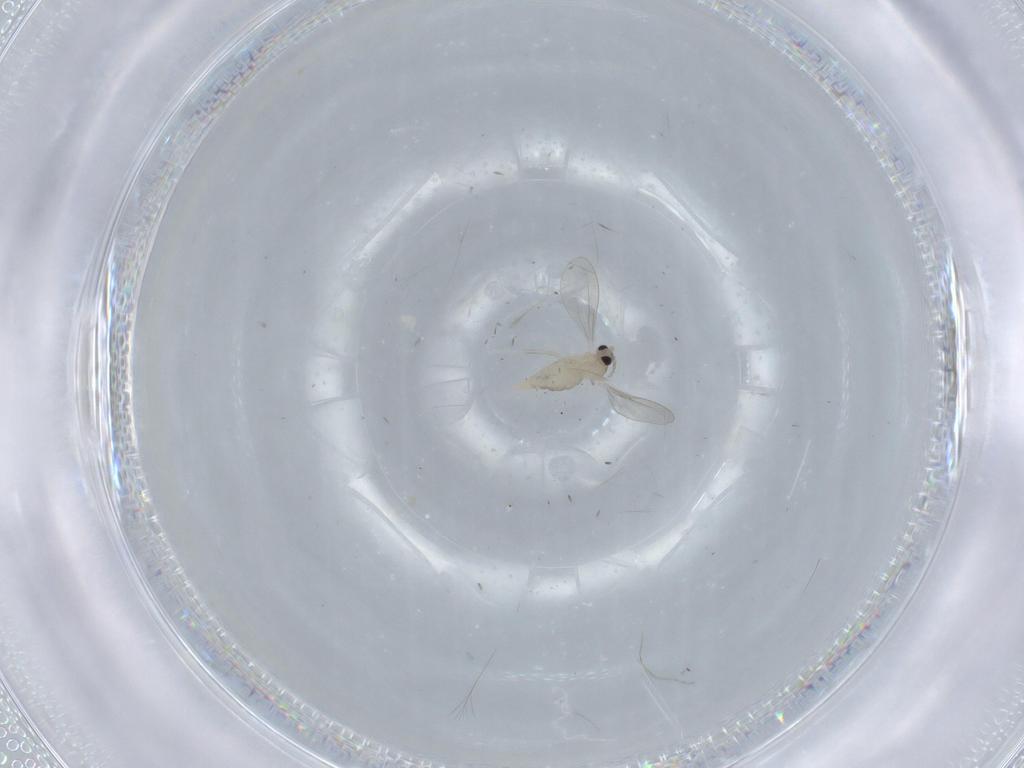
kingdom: Animalia
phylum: Arthropoda
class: Insecta
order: Diptera
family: Cecidomyiidae
